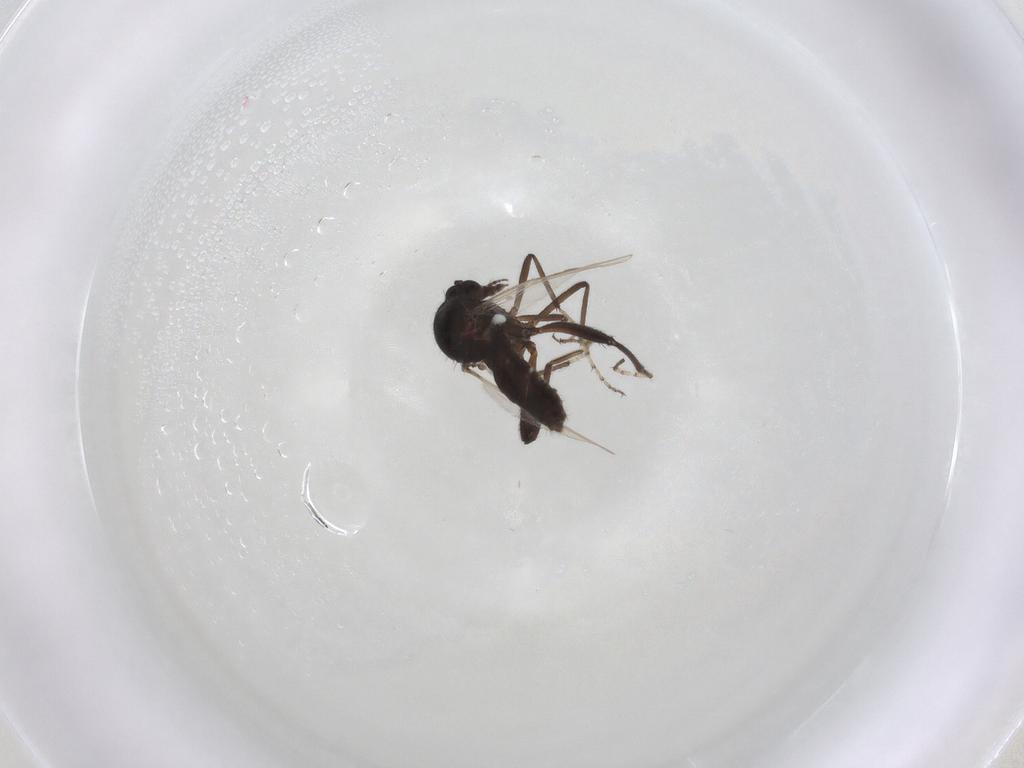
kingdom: Animalia
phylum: Arthropoda
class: Insecta
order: Diptera
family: Ceratopogonidae
